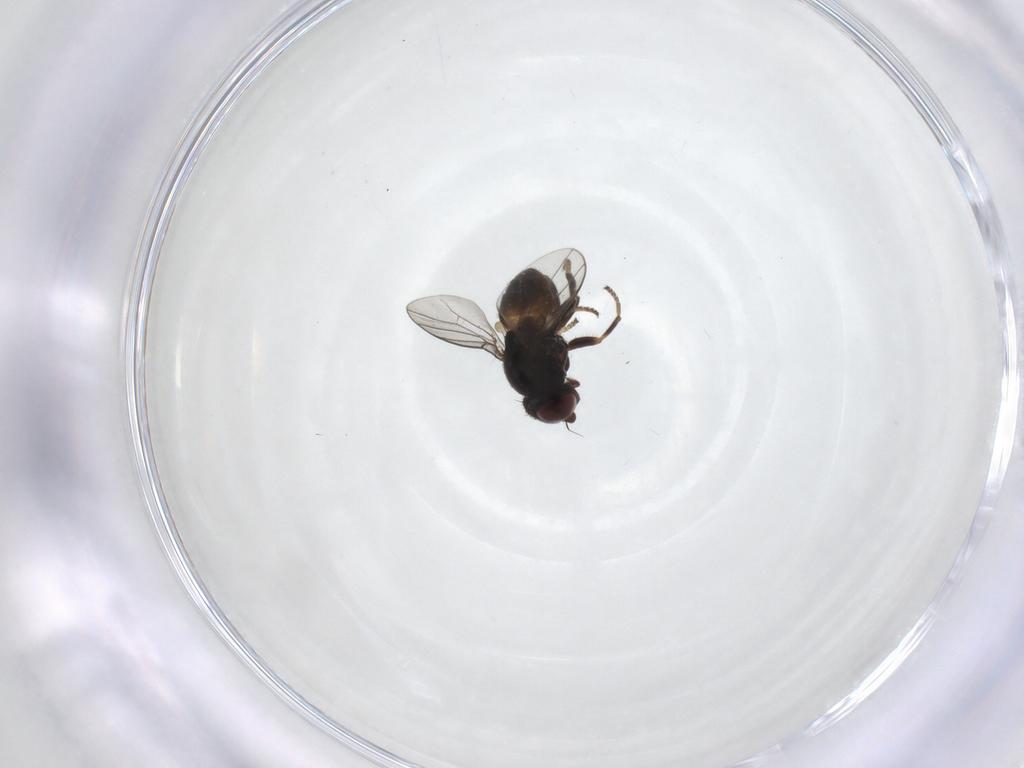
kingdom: Animalia
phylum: Arthropoda
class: Insecta
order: Diptera
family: Chloropidae
